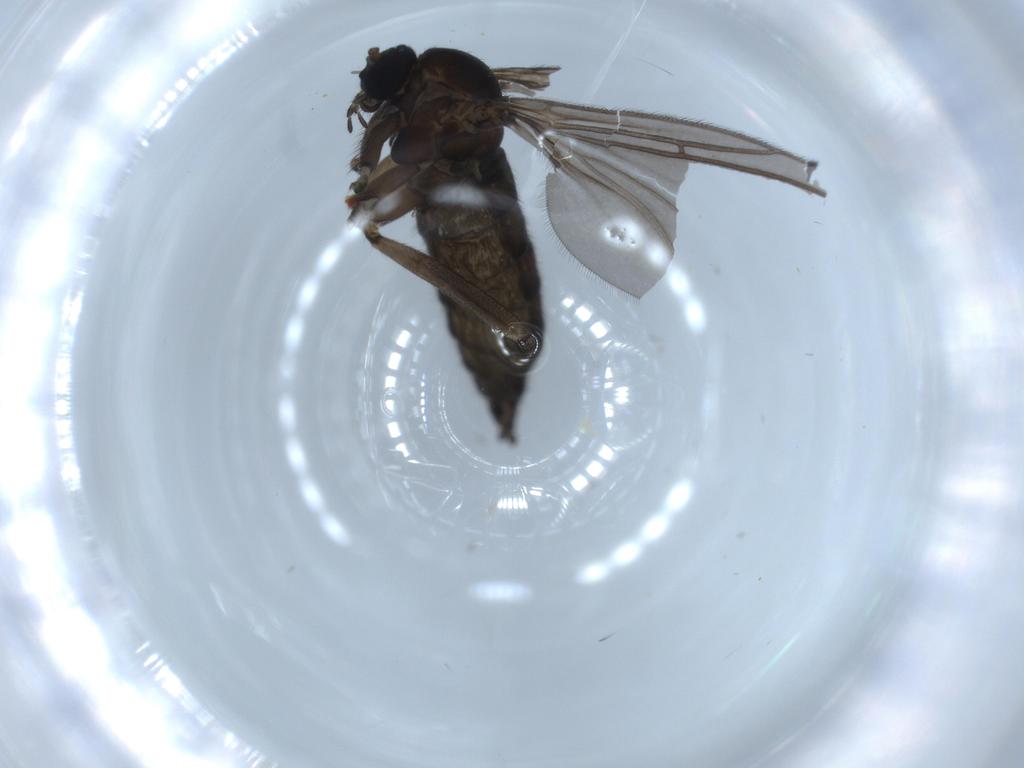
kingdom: Animalia
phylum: Arthropoda
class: Insecta
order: Diptera
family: Sciaridae
